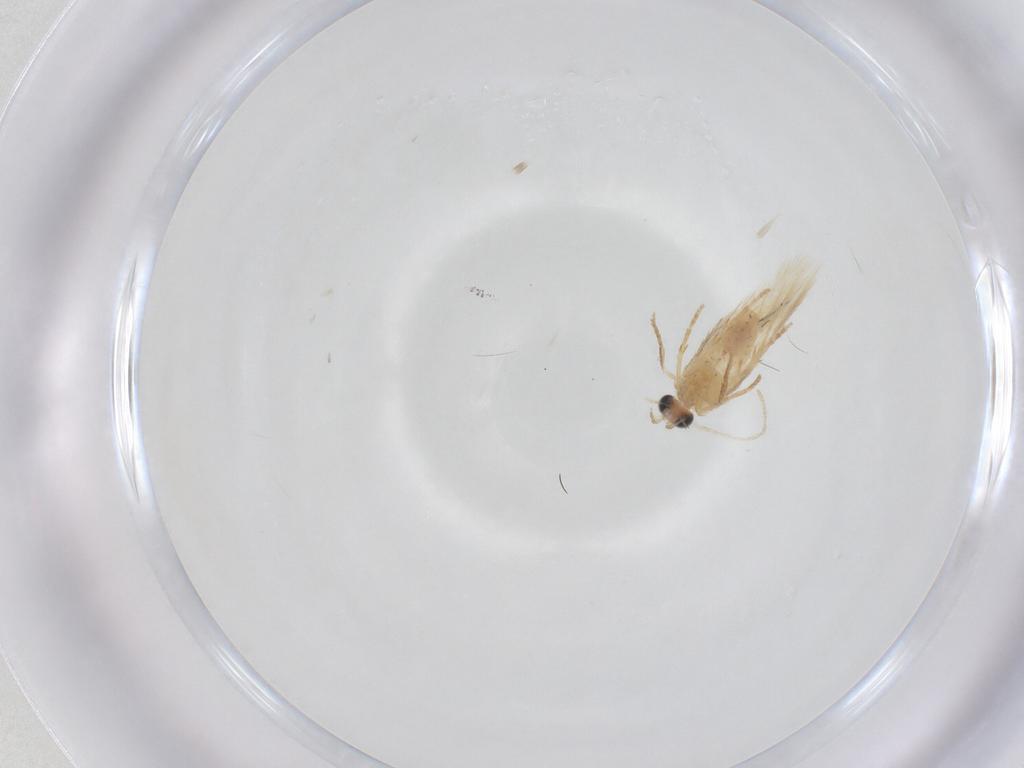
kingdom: Animalia
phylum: Arthropoda
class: Insecta
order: Lepidoptera
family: Nepticulidae
